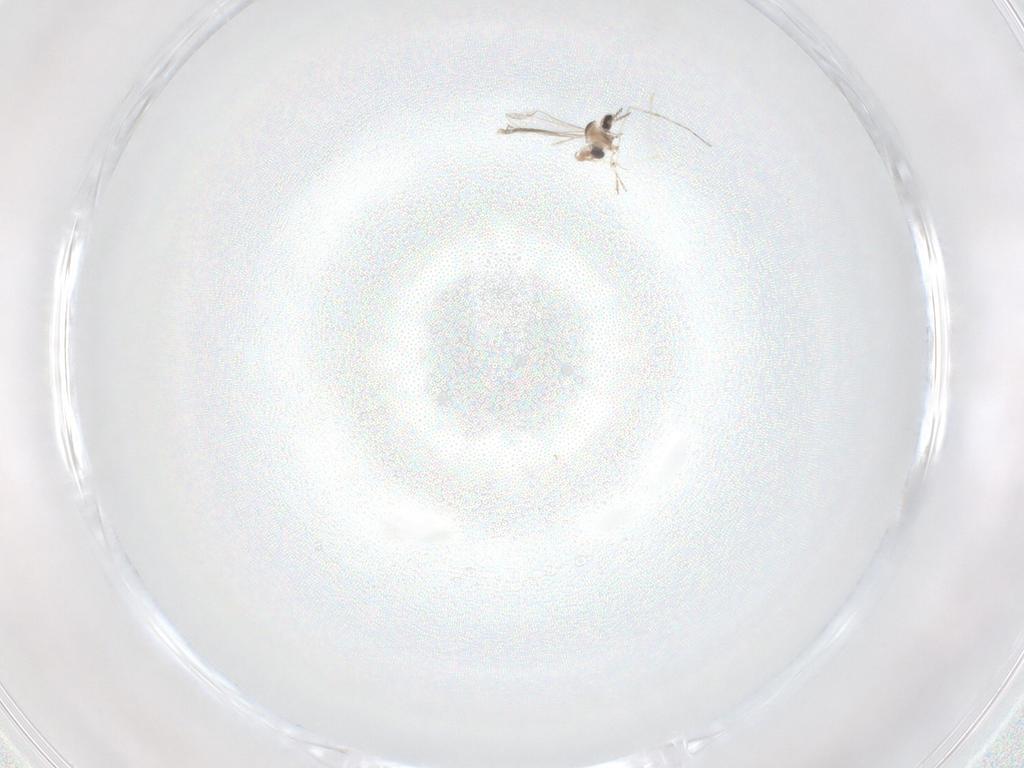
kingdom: Animalia
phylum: Arthropoda
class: Insecta
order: Diptera
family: Cecidomyiidae
